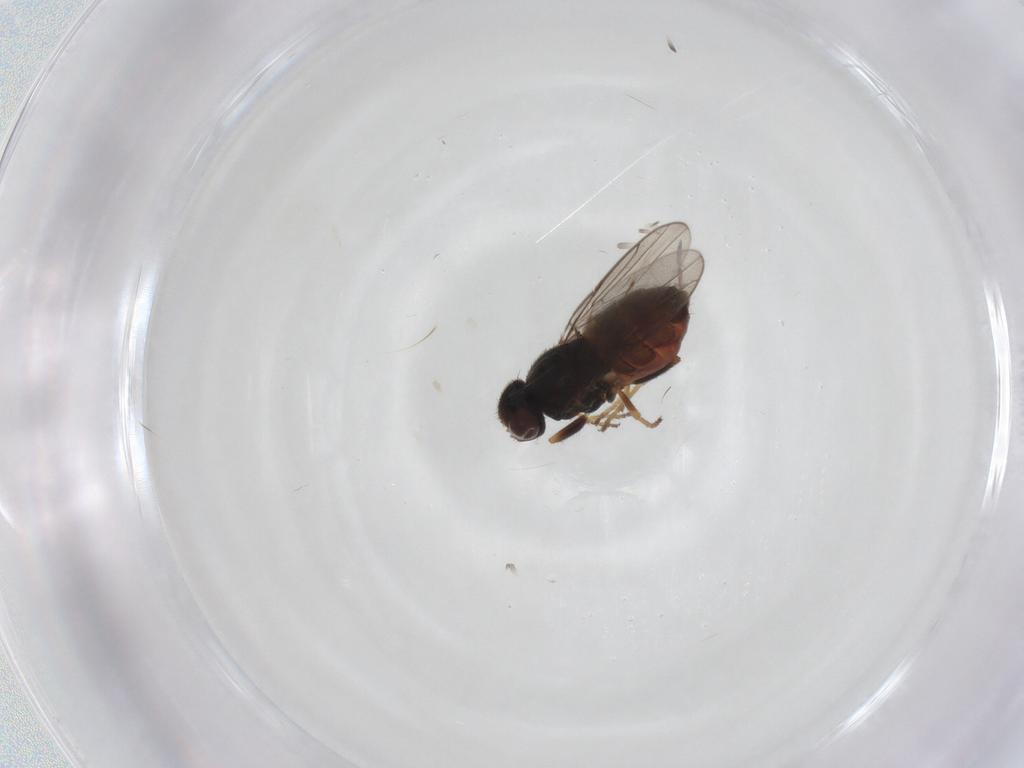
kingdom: Animalia
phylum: Arthropoda
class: Insecta
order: Diptera
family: Chloropidae
